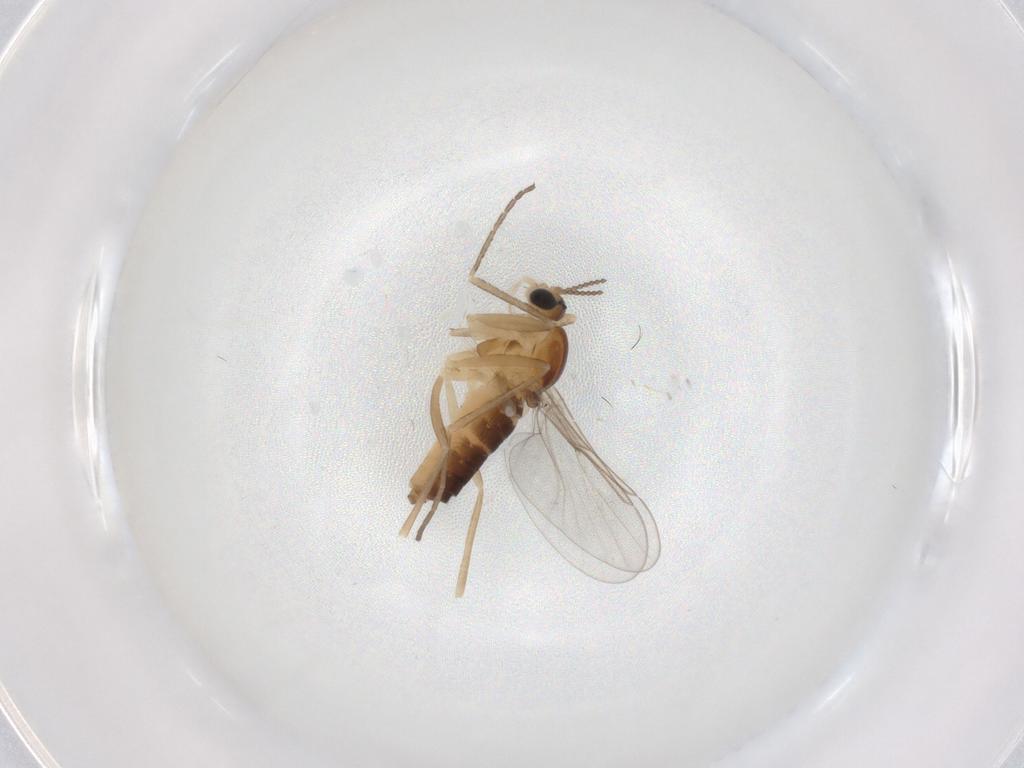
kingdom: Animalia
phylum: Arthropoda
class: Insecta
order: Diptera
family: Cecidomyiidae
